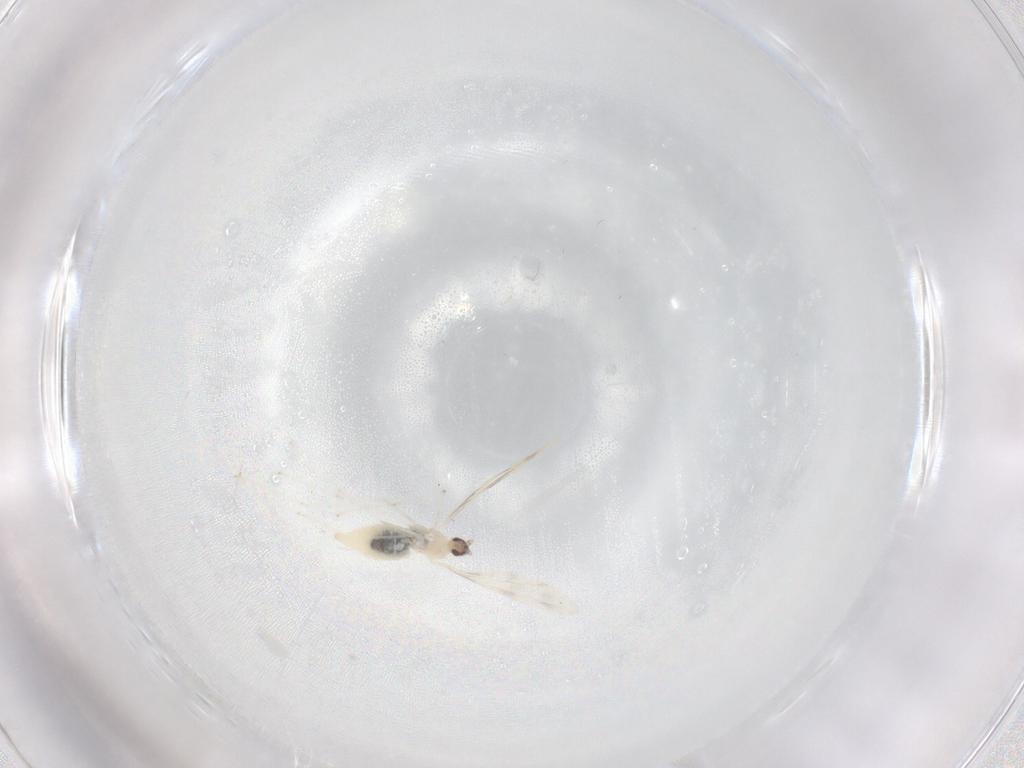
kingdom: Animalia
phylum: Arthropoda
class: Insecta
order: Diptera
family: Cecidomyiidae
